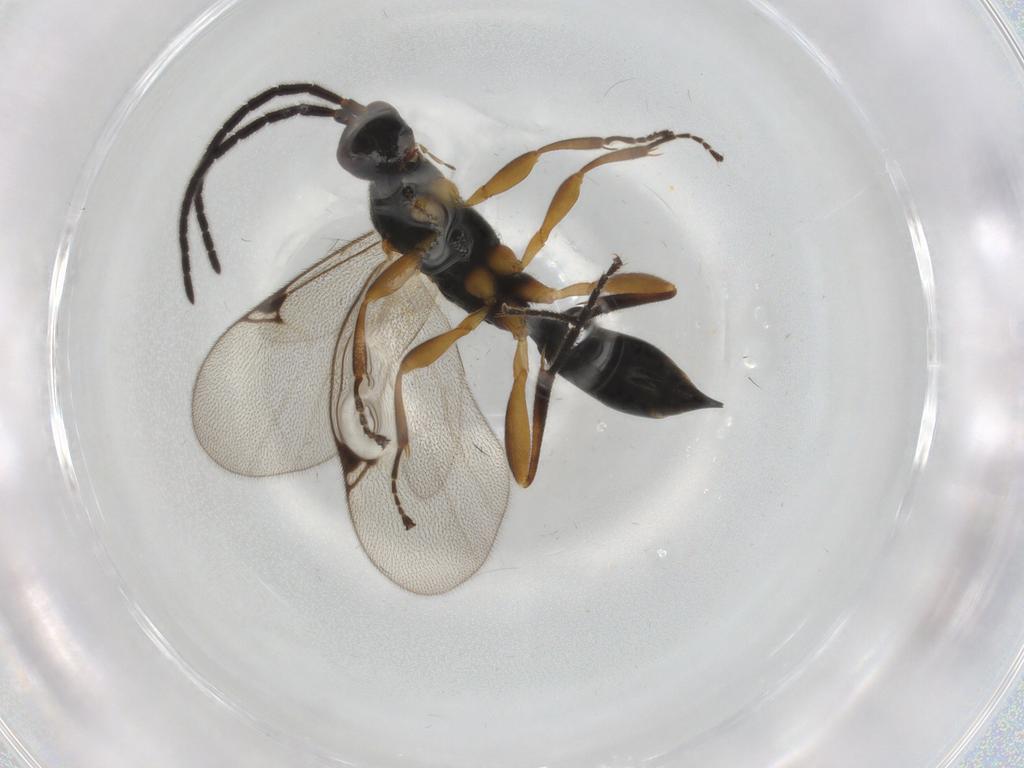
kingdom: Animalia
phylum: Arthropoda
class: Insecta
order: Hymenoptera
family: Proctotrupidae
